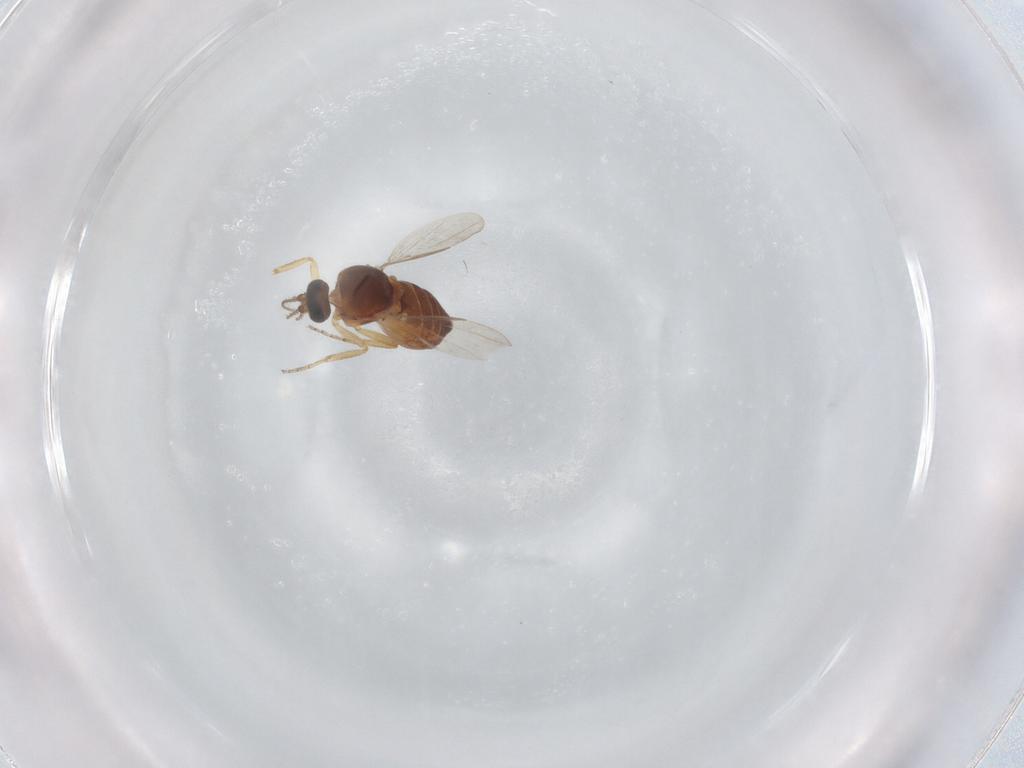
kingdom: Animalia
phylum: Arthropoda
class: Insecta
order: Diptera
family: Ceratopogonidae
